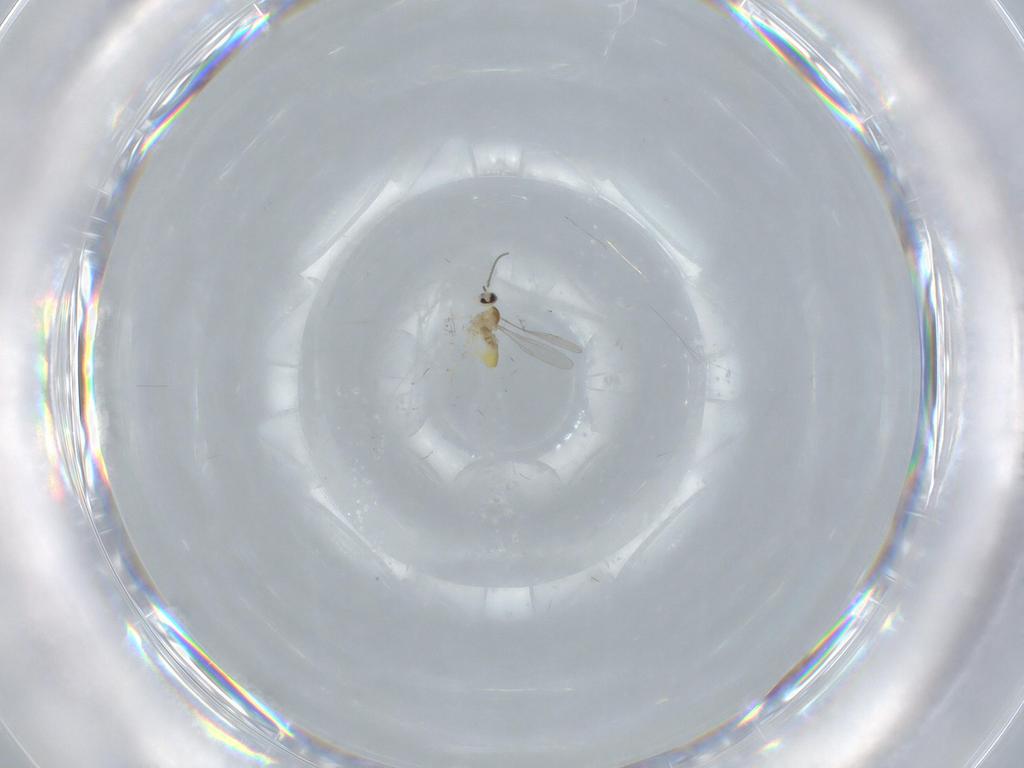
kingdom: Animalia
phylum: Arthropoda
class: Insecta
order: Diptera
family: Cecidomyiidae
